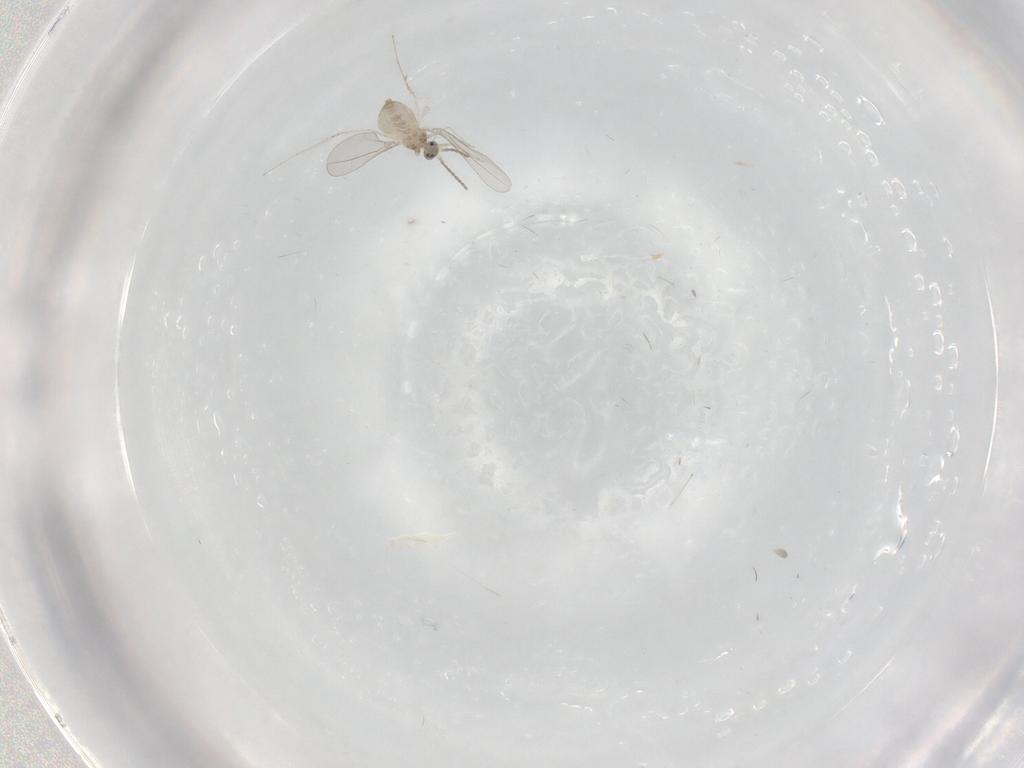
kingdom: Animalia
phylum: Arthropoda
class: Insecta
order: Diptera
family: Cecidomyiidae
